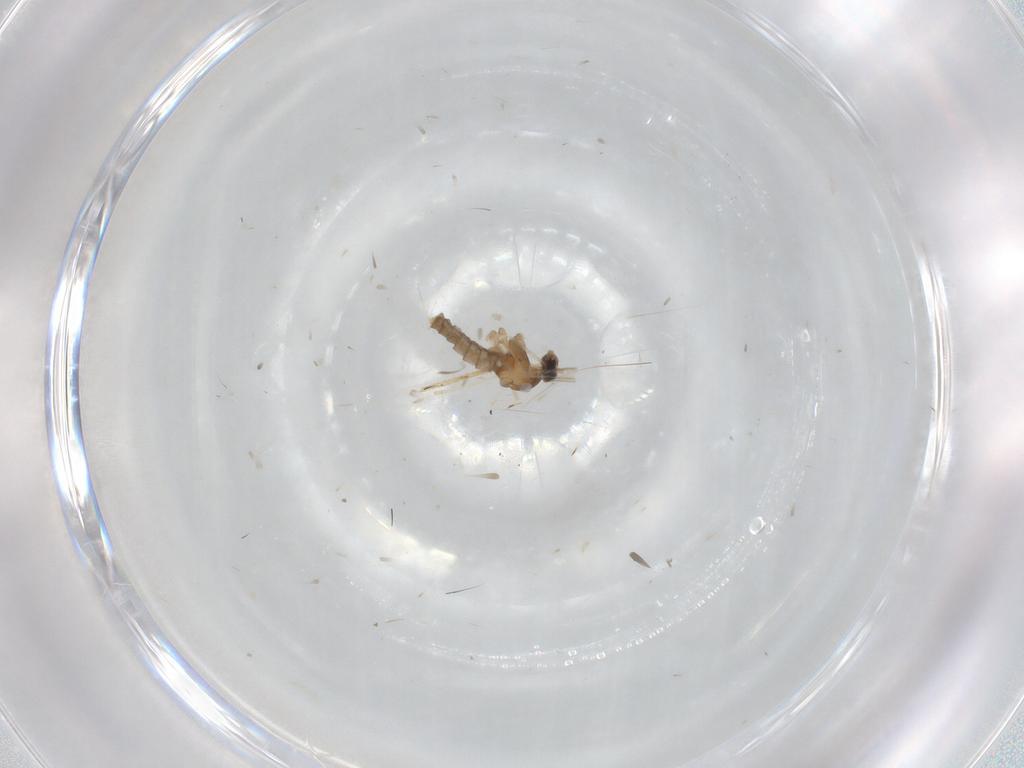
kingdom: Animalia
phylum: Arthropoda
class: Insecta
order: Diptera
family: Cecidomyiidae
